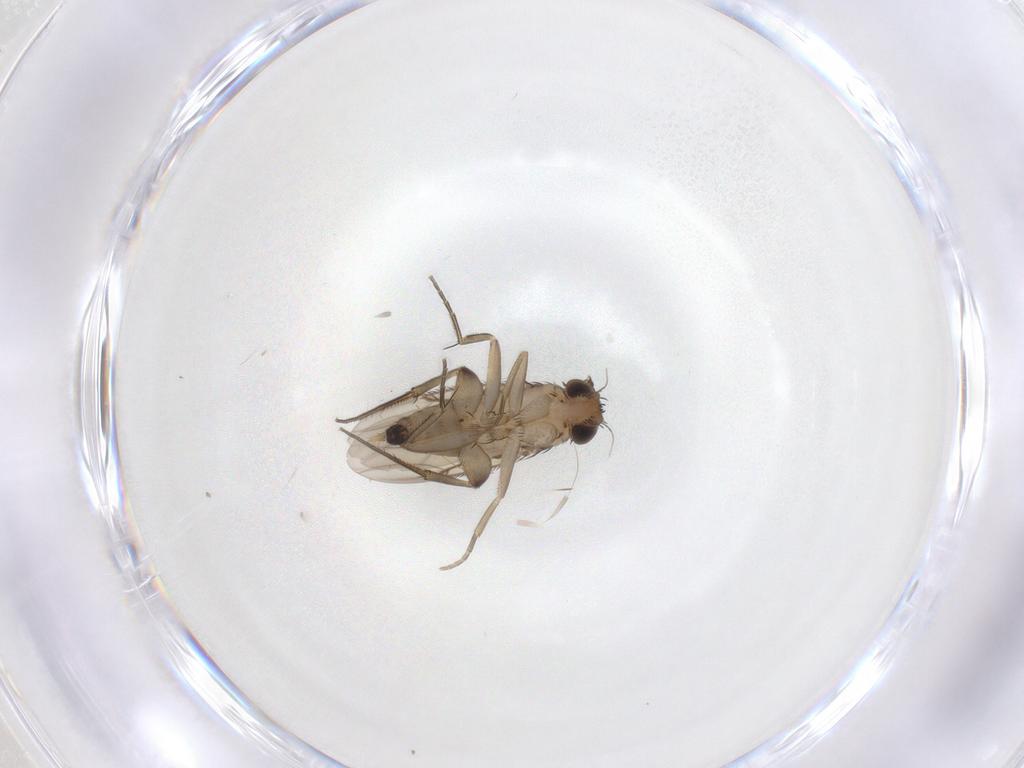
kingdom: Animalia
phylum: Arthropoda
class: Insecta
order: Diptera
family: Phoridae
